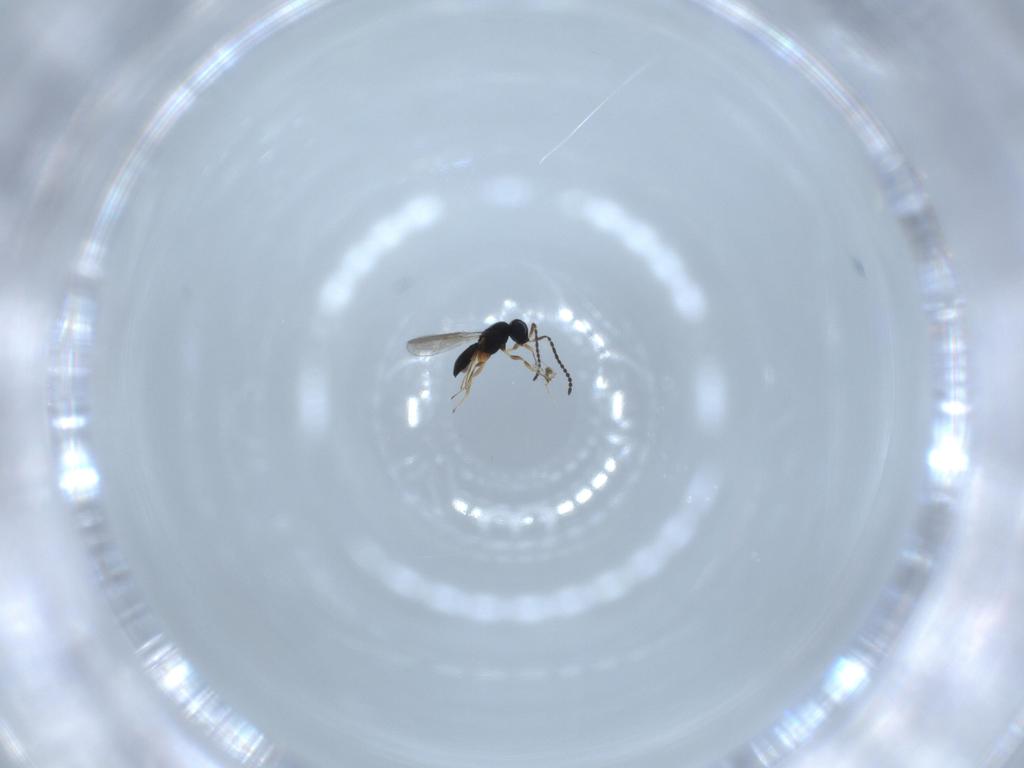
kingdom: Animalia
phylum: Arthropoda
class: Insecta
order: Hymenoptera
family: Scelionidae
